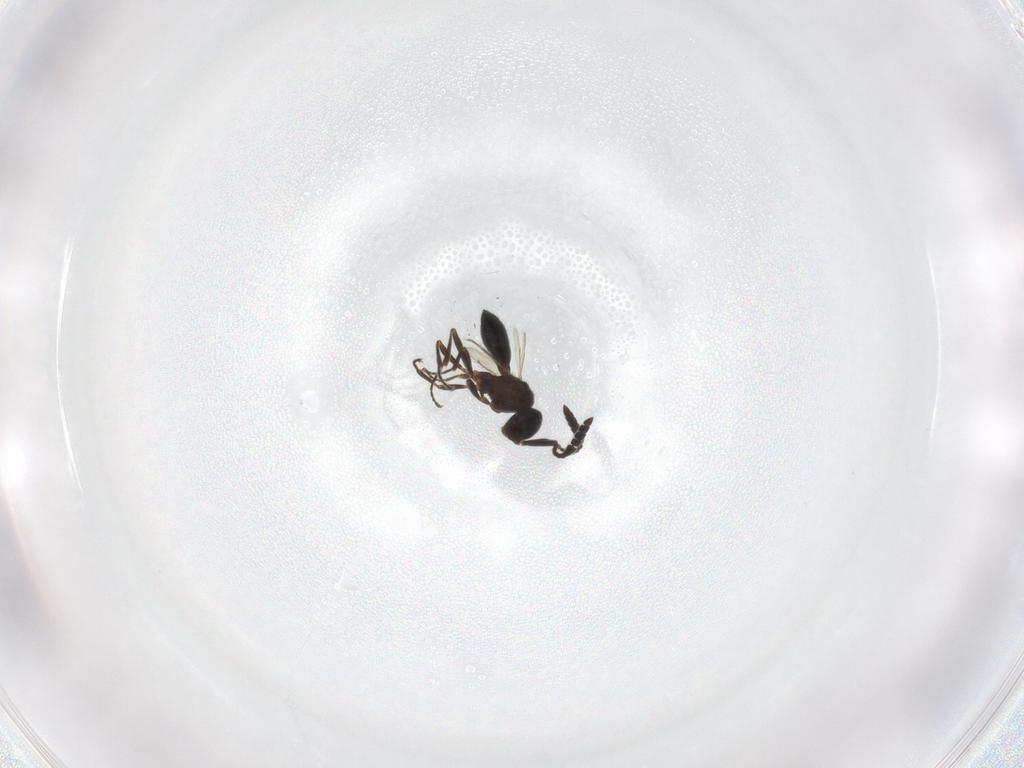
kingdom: Animalia
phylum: Arthropoda
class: Insecta
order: Hymenoptera
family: Scelionidae
